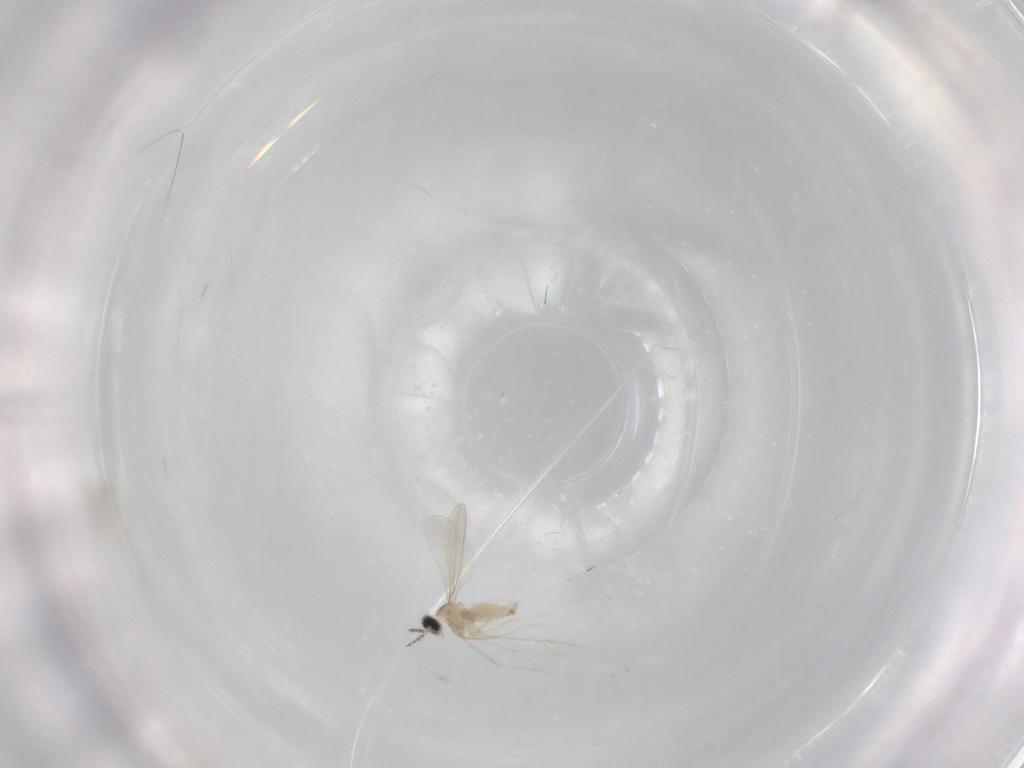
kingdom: Animalia
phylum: Arthropoda
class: Insecta
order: Diptera
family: Cecidomyiidae
